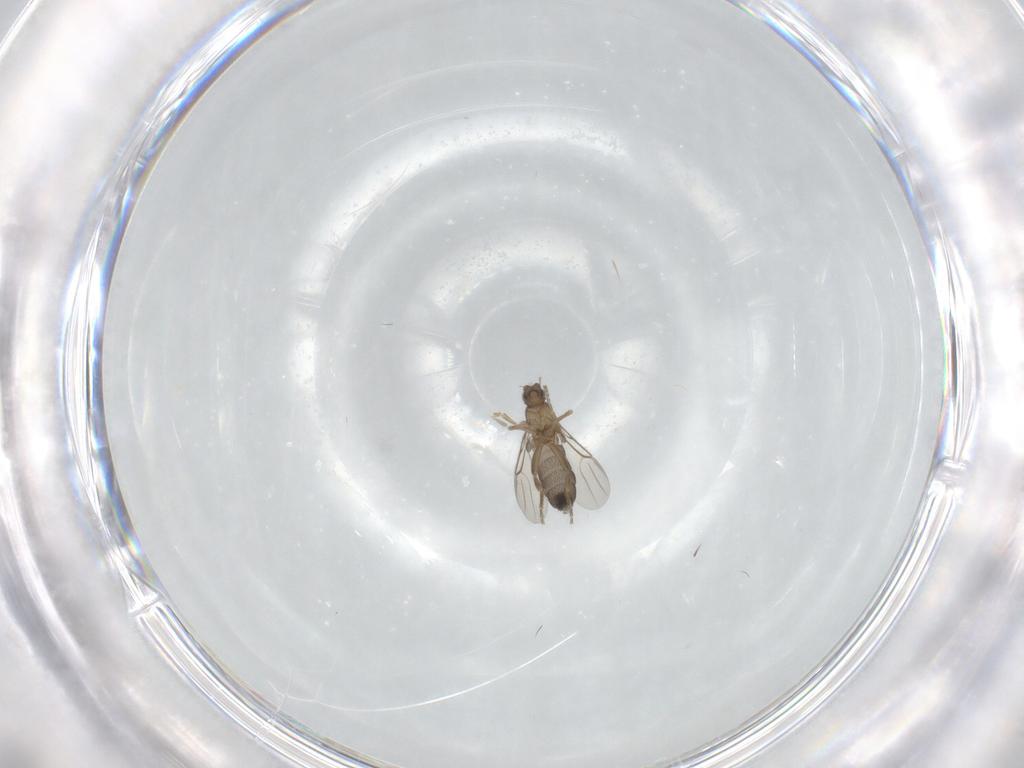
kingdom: Animalia
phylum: Arthropoda
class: Insecta
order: Diptera
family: Phoridae
